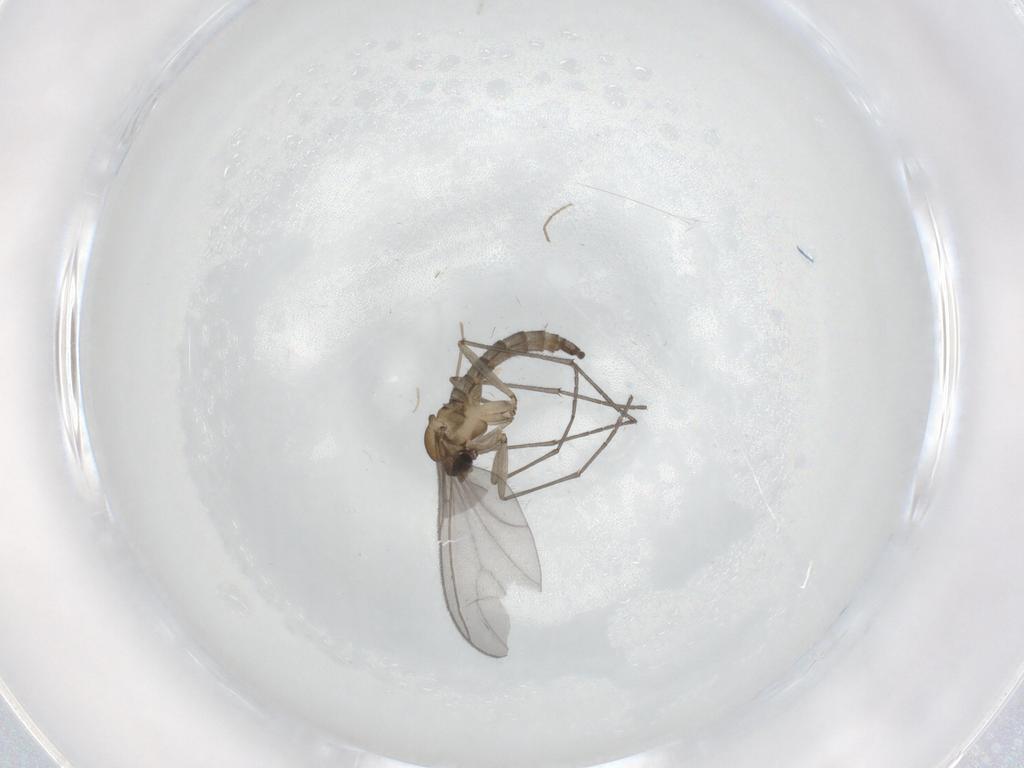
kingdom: Animalia
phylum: Arthropoda
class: Insecta
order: Diptera
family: Sciaridae
